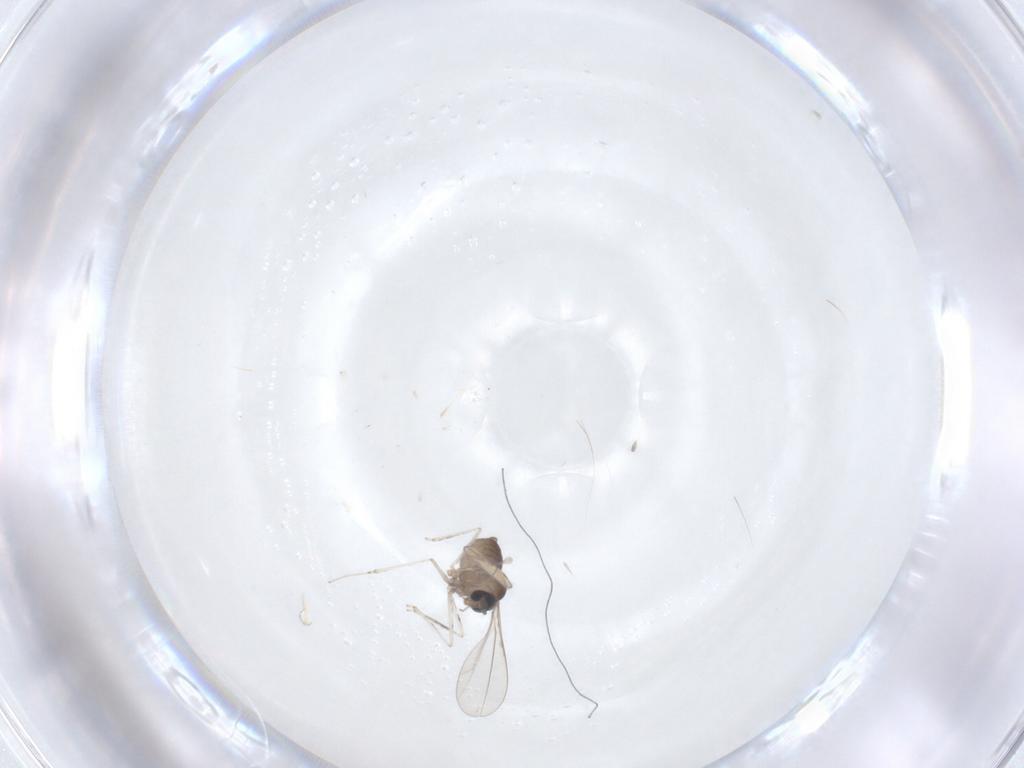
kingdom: Animalia
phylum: Arthropoda
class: Insecta
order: Diptera
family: Cecidomyiidae
